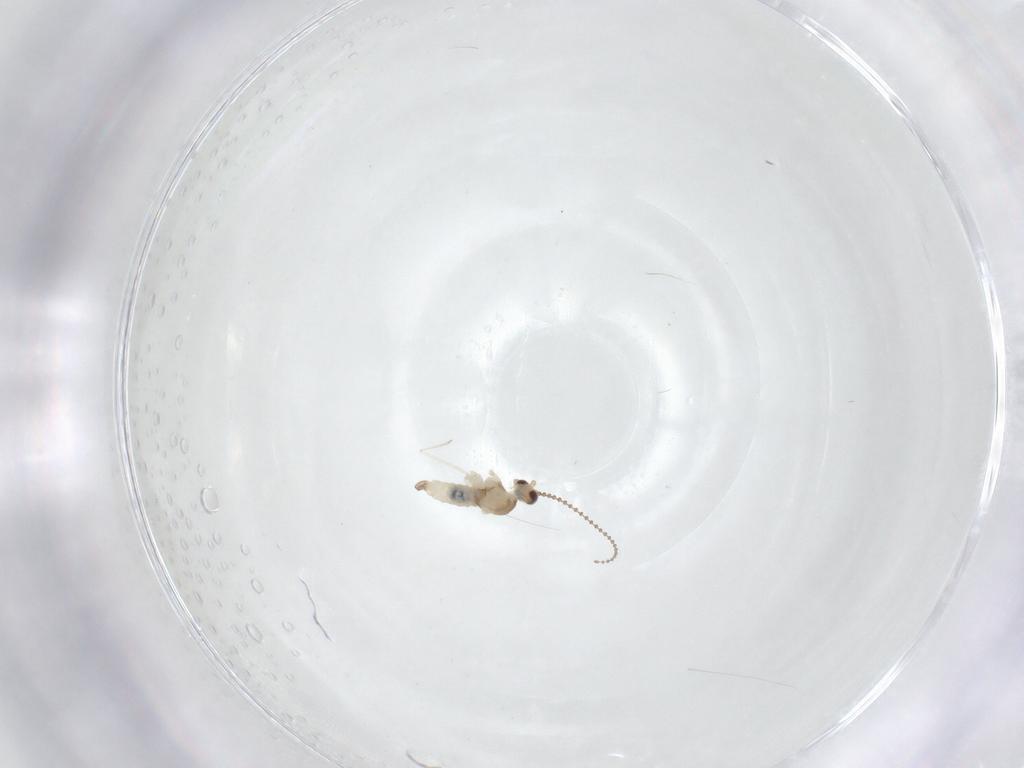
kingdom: Animalia
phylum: Arthropoda
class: Insecta
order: Diptera
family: Cecidomyiidae
